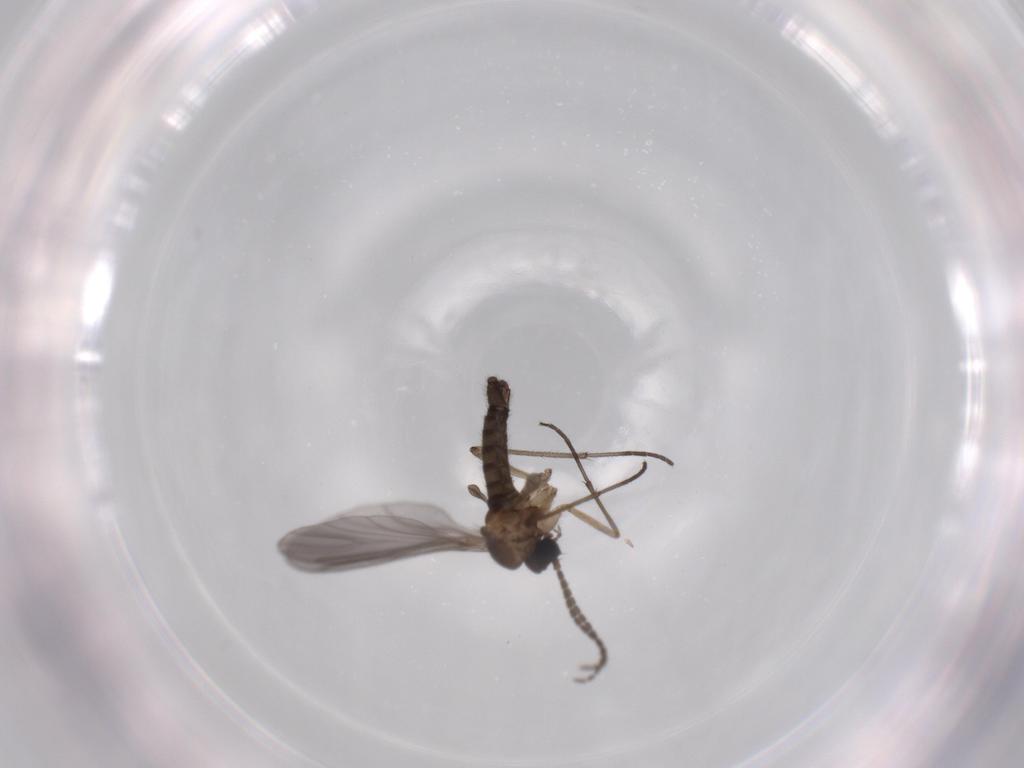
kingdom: Animalia
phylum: Arthropoda
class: Insecta
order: Diptera
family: Sciaridae
